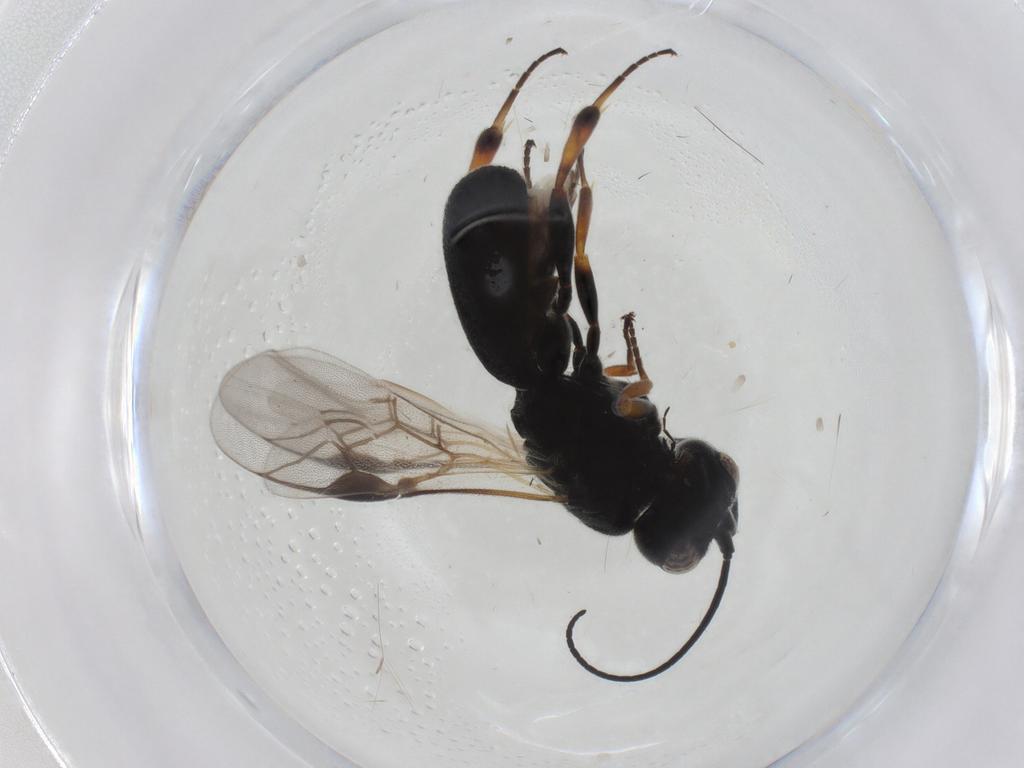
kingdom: Animalia
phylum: Arthropoda
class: Insecta
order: Hymenoptera
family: Braconidae
